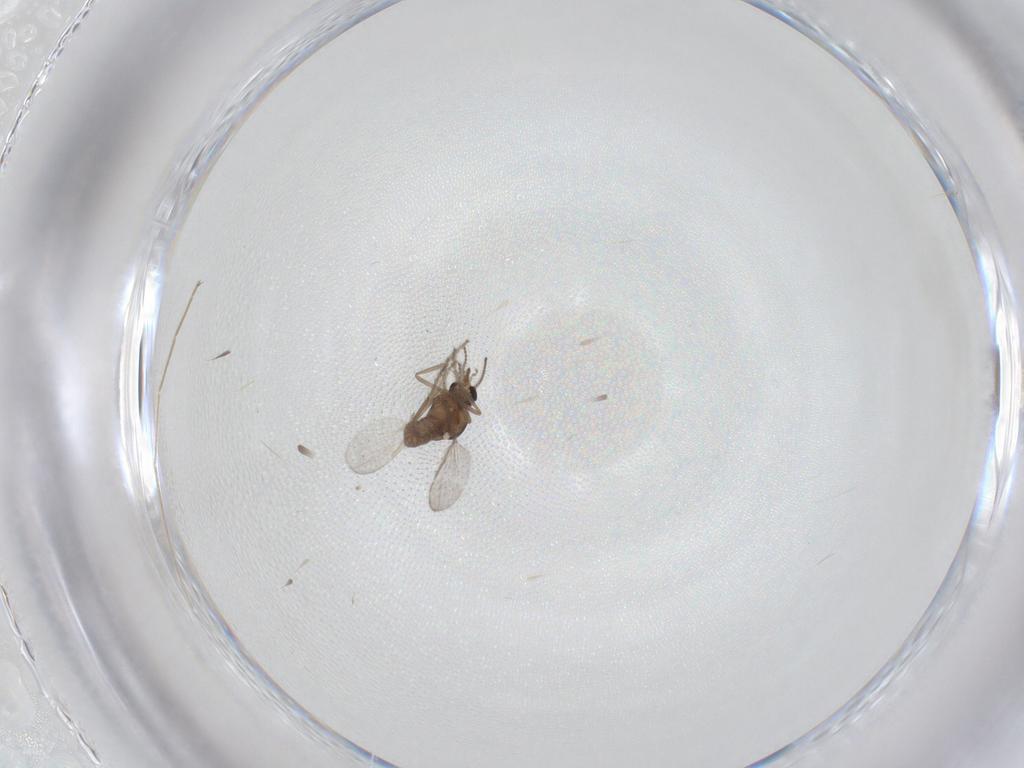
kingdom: Animalia
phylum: Arthropoda
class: Insecta
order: Diptera
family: Chironomidae
